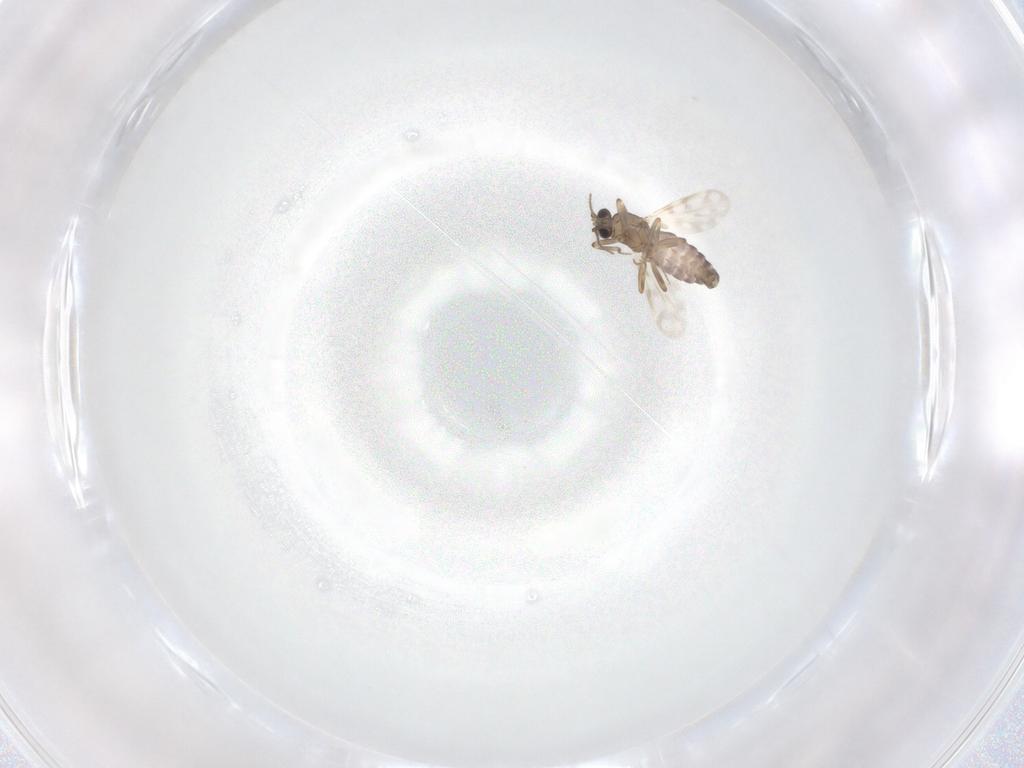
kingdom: Animalia
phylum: Arthropoda
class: Insecta
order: Diptera
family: Ceratopogonidae
